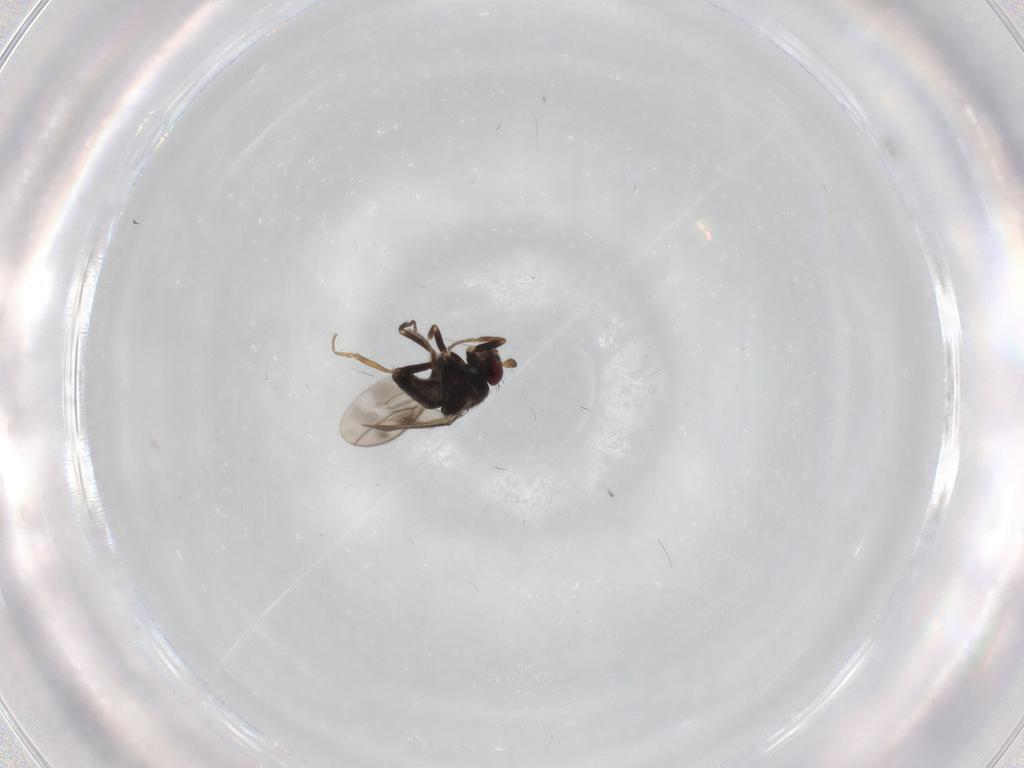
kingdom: Animalia
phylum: Arthropoda
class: Insecta
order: Diptera
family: Chironomidae
